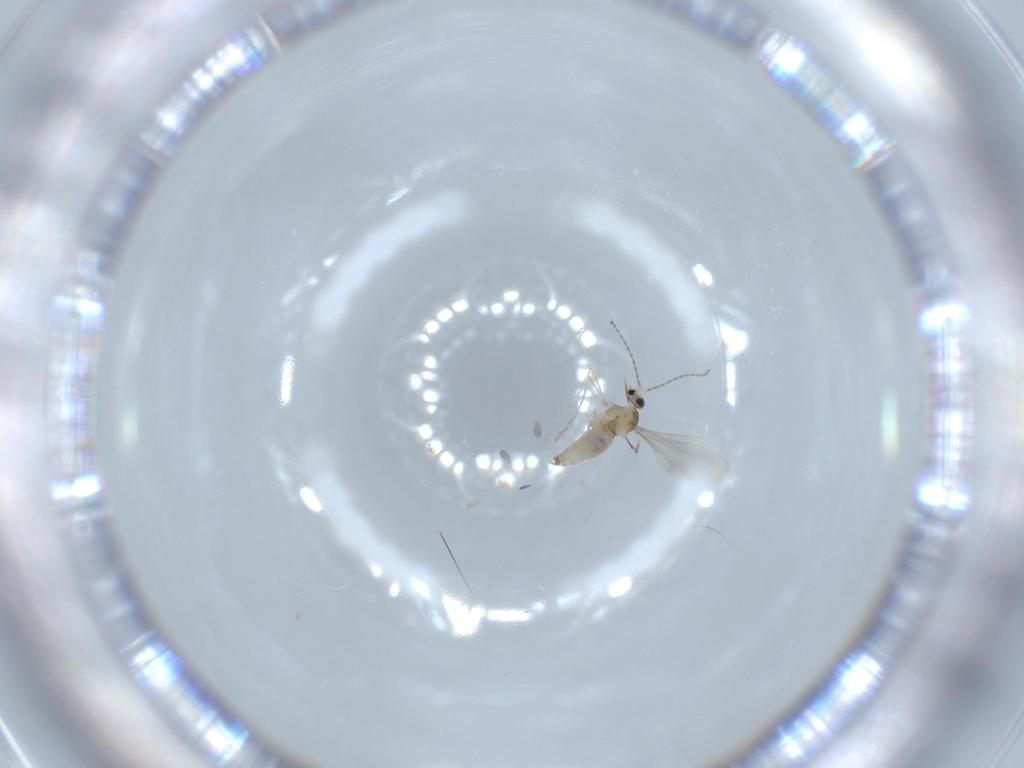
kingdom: Animalia
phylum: Arthropoda
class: Insecta
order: Diptera
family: Cecidomyiidae
